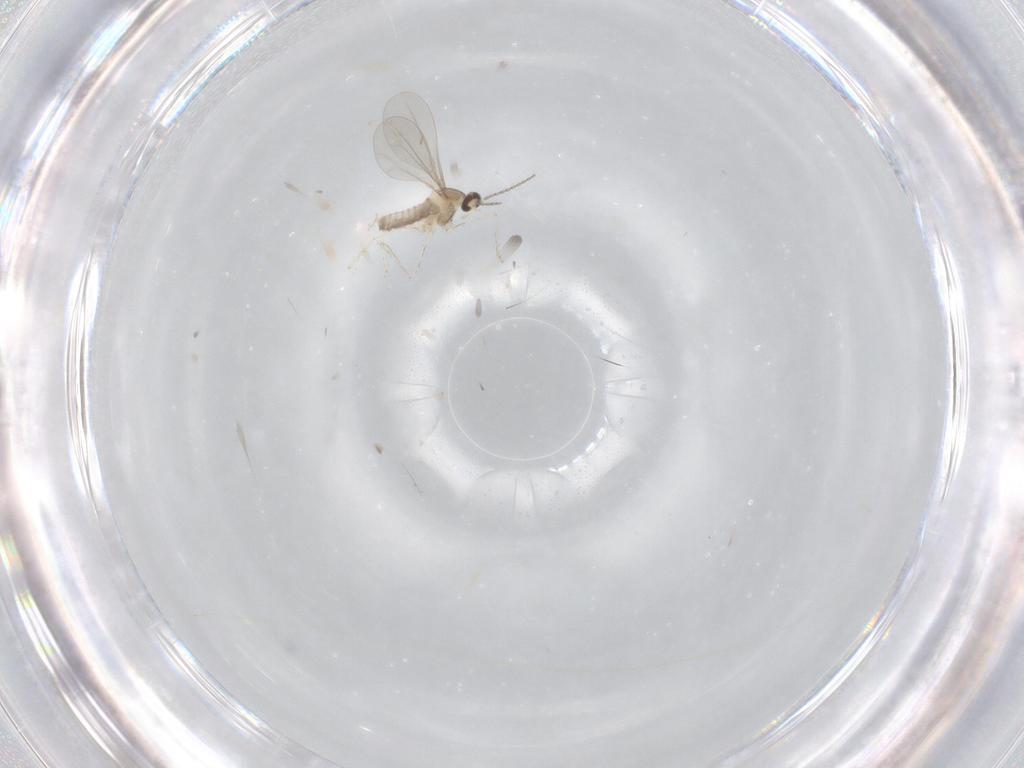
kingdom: Animalia
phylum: Arthropoda
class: Insecta
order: Diptera
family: Cecidomyiidae
